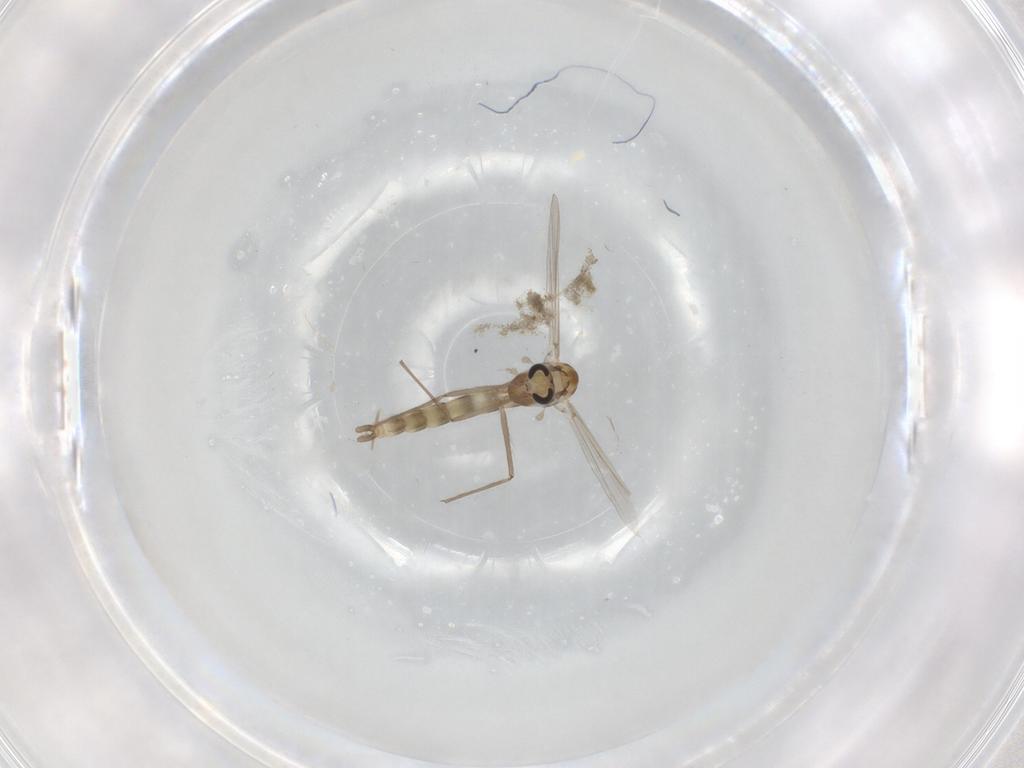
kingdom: Animalia
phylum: Arthropoda
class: Insecta
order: Diptera
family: Chironomidae
